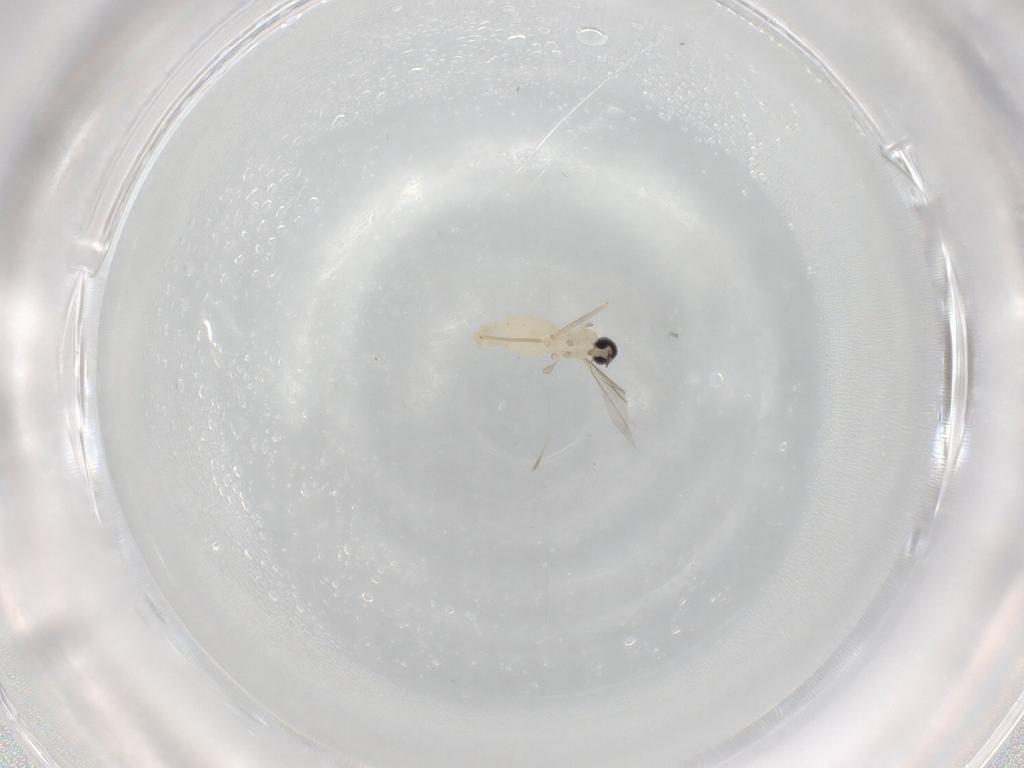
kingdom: Animalia
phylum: Arthropoda
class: Insecta
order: Diptera
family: Cecidomyiidae
